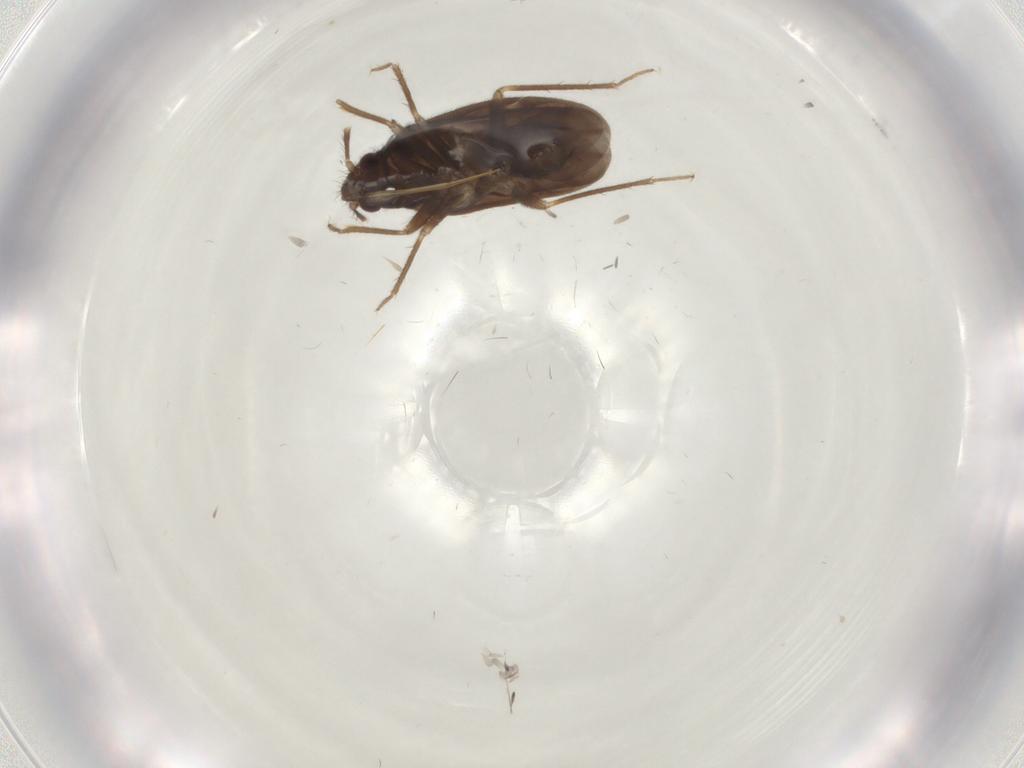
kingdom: Animalia
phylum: Arthropoda
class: Insecta
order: Hemiptera
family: Ceratocombidae
